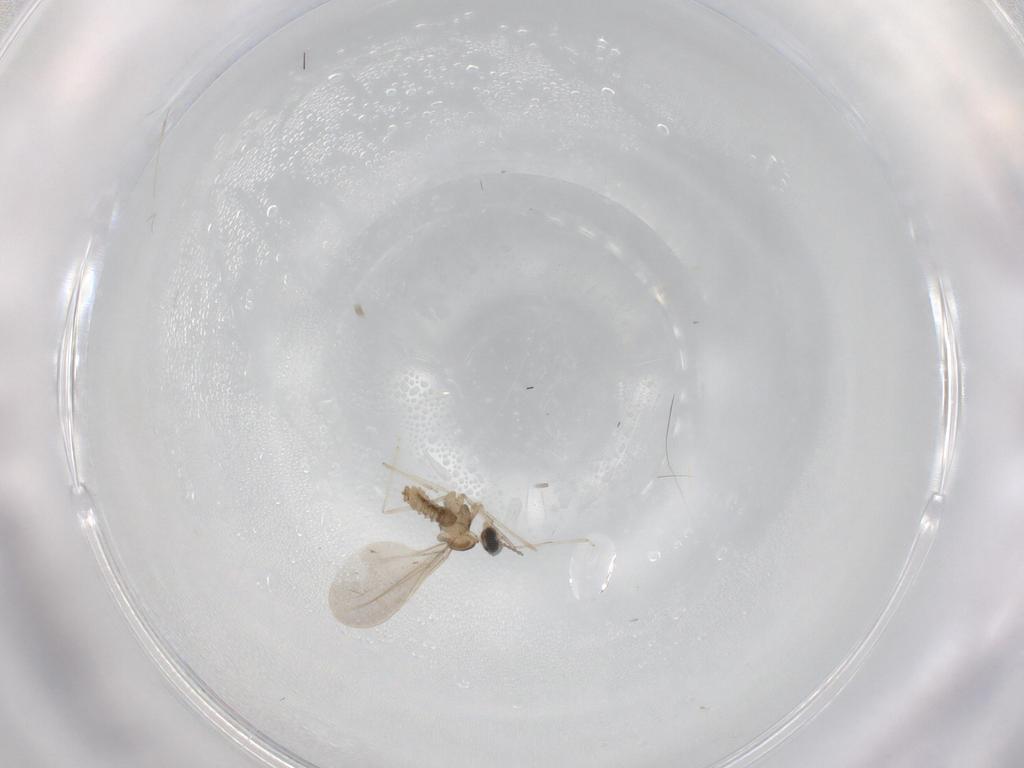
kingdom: Animalia
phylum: Arthropoda
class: Insecta
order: Diptera
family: Cecidomyiidae
